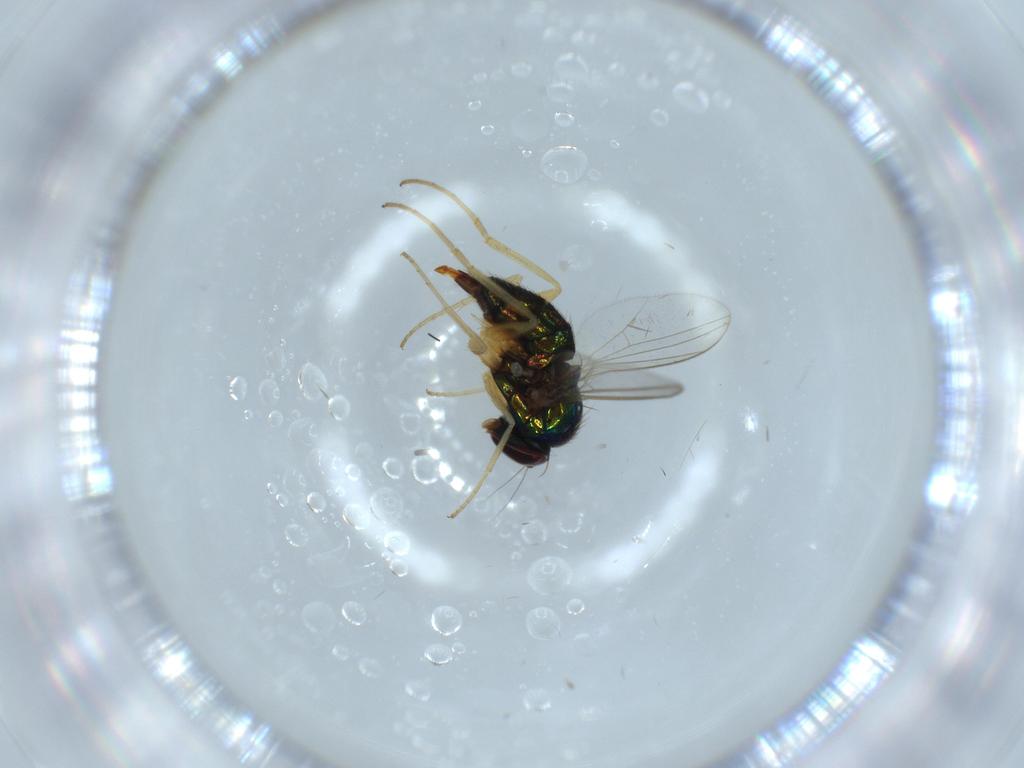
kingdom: Animalia
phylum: Arthropoda
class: Insecta
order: Diptera
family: Dolichopodidae
